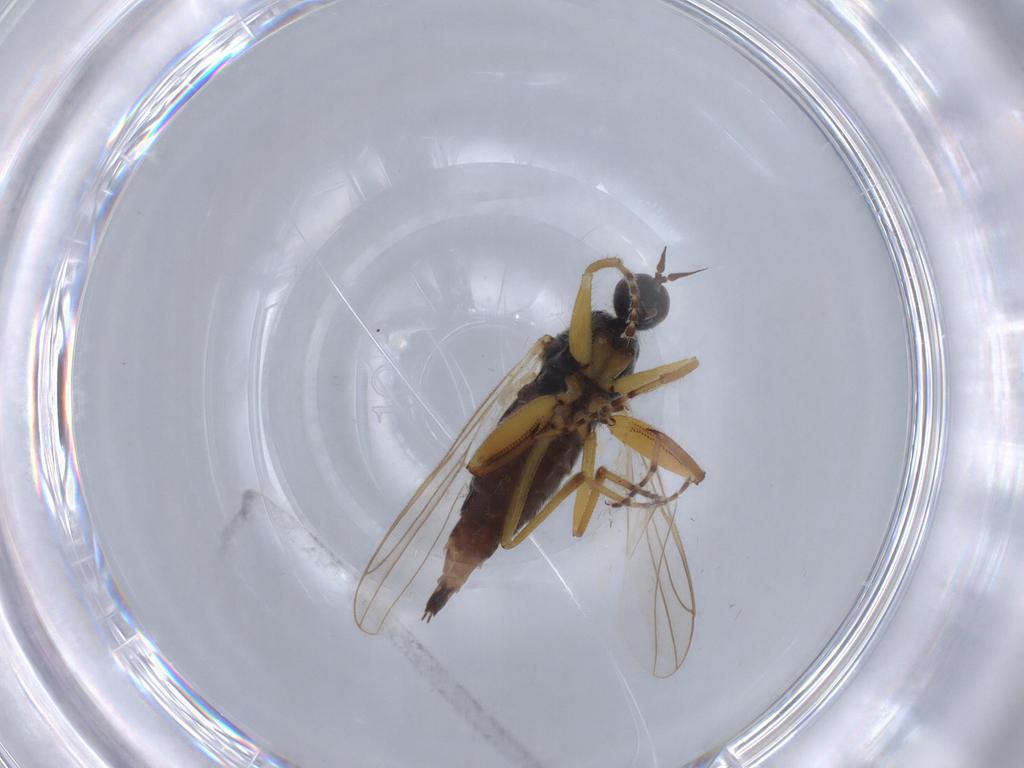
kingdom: Animalia
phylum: Arthropoda
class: Insecta
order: Diptera
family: Hybotidae
